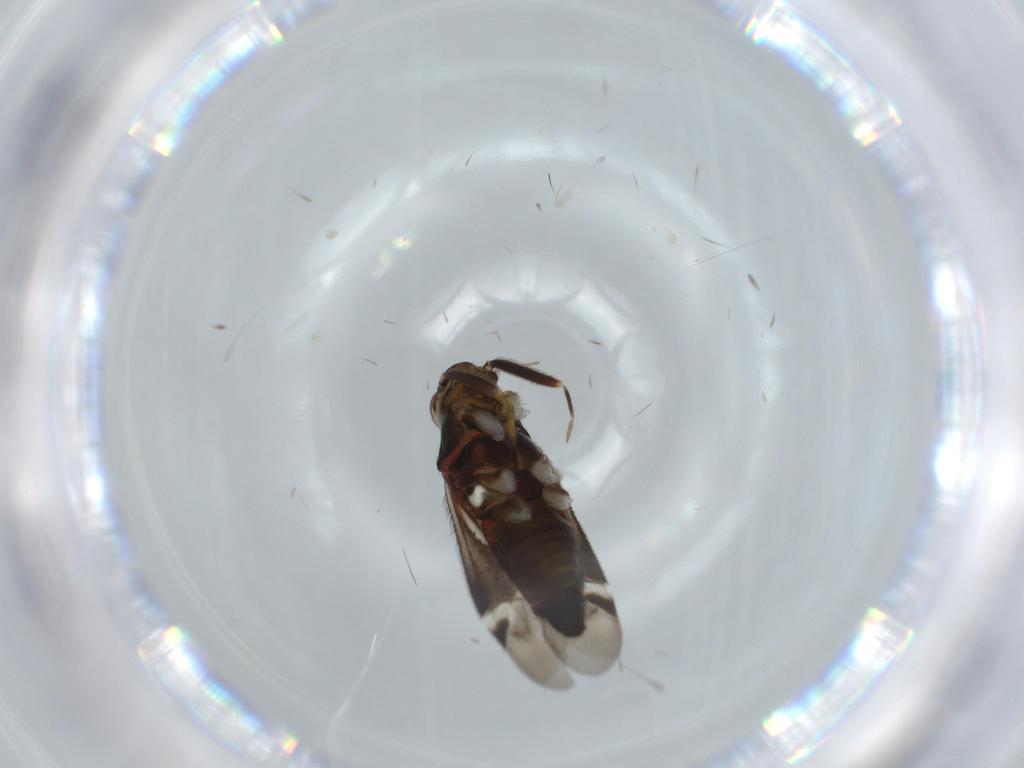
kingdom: Animalia
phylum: Arthropoda
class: Insecta
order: Hemiptera
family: Miridae
